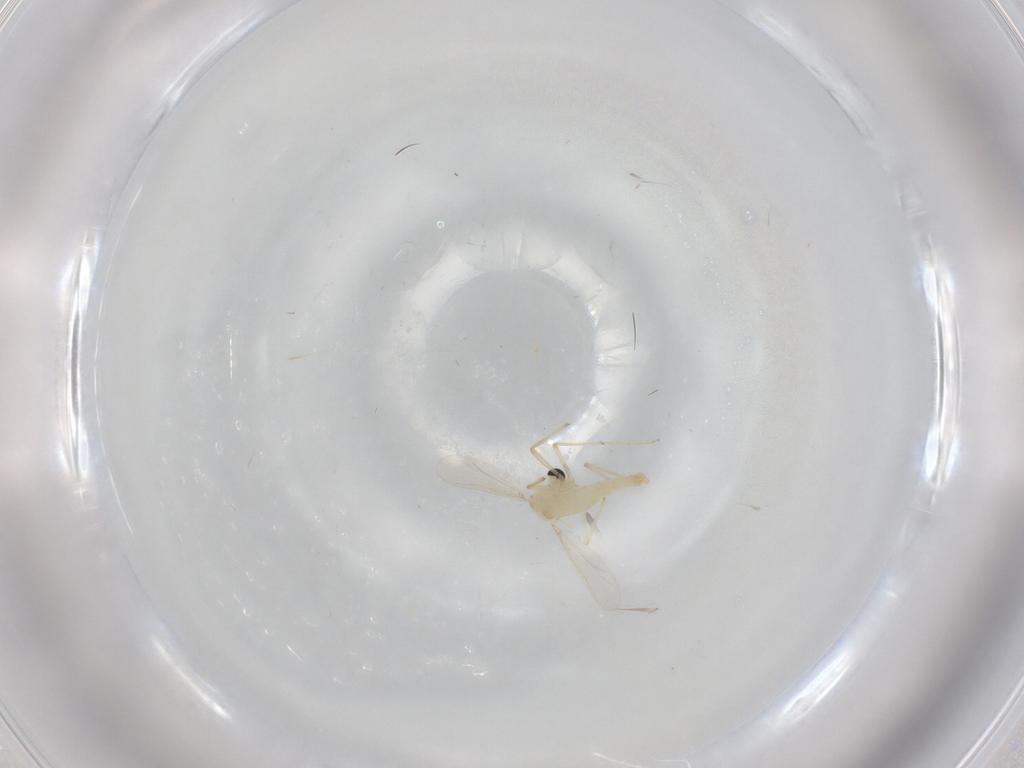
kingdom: Animalia
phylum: Arthropoda
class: Insecta
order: Diptera
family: Chironomidae
